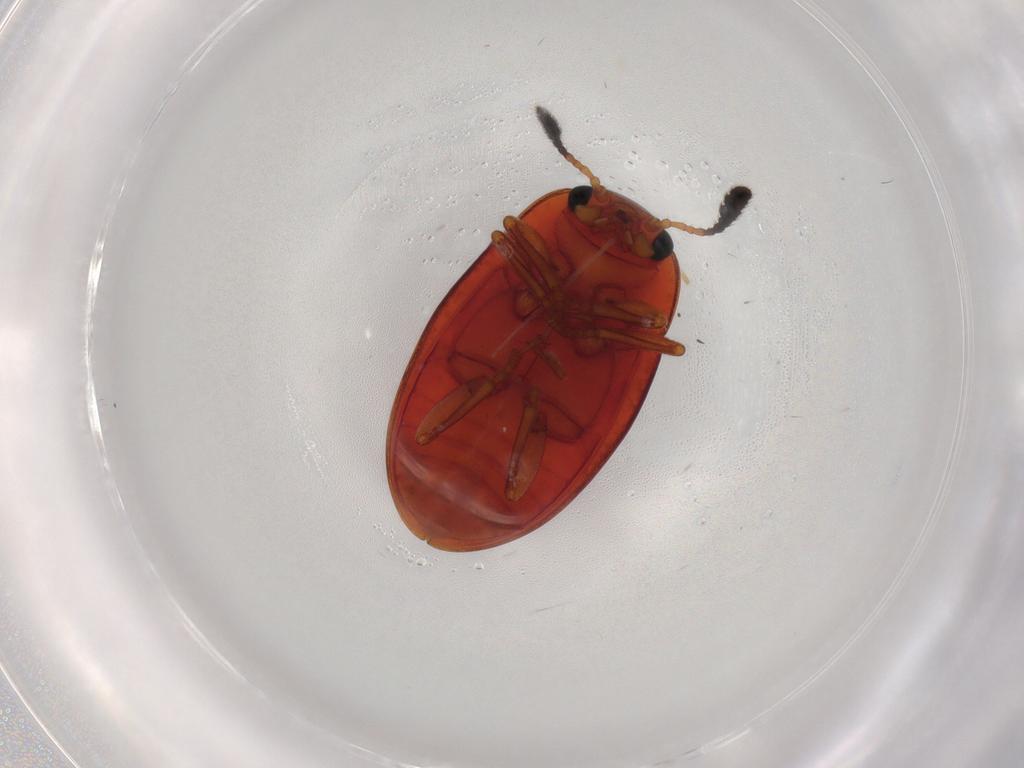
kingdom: Animalia
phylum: Arthropoda
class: Insecta
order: Coleoptera
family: Erotylidae
